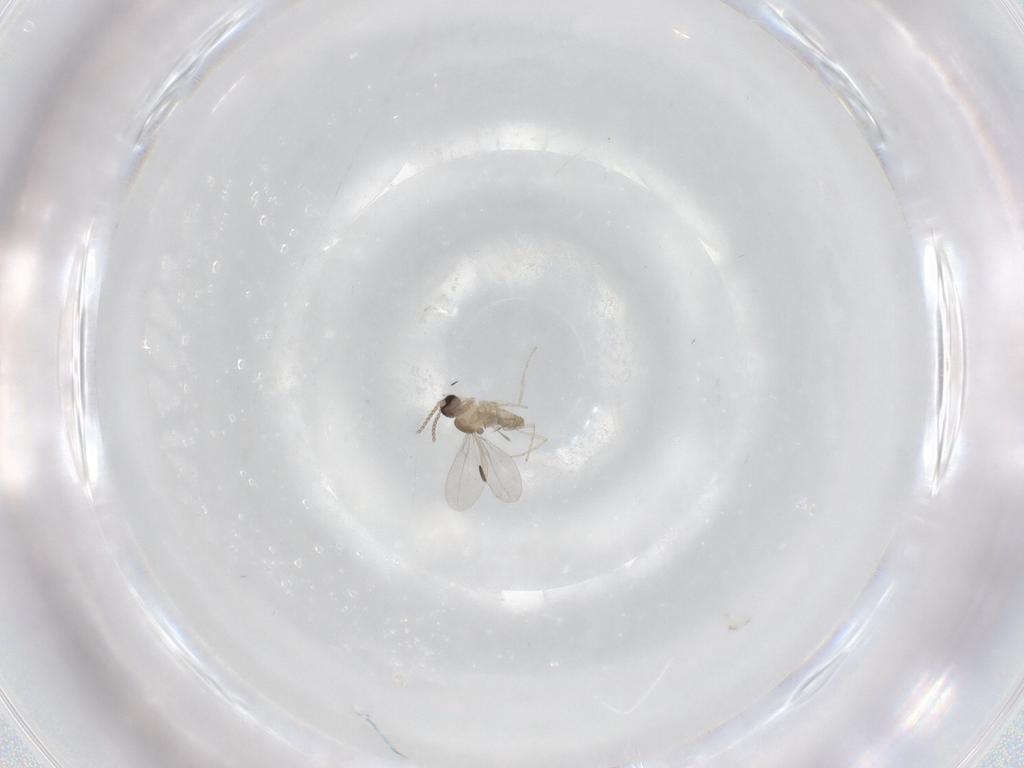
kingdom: Animalia
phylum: Arthropoda
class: Insecta
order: Diptera
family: Cecidomyiidae
